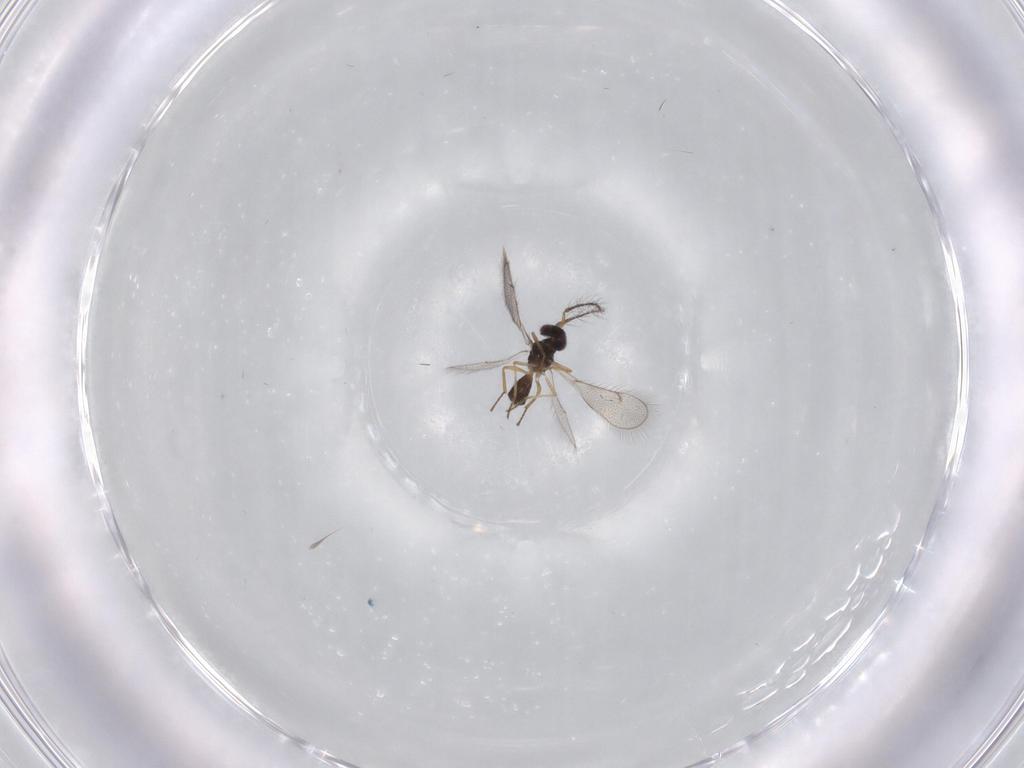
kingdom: Animalia
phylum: Arthropoda
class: Insecta
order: Hymenoptera
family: Eulophidae
